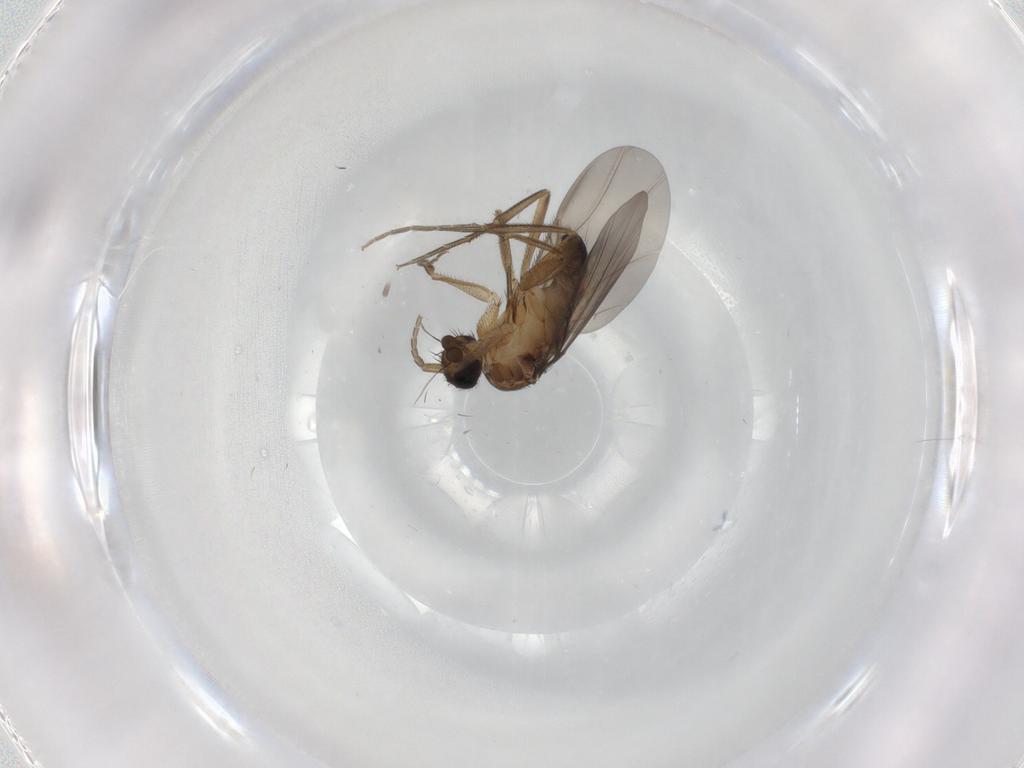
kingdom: Animalia
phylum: Arthropoda
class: Insecta
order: Diptera
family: Phoridae
